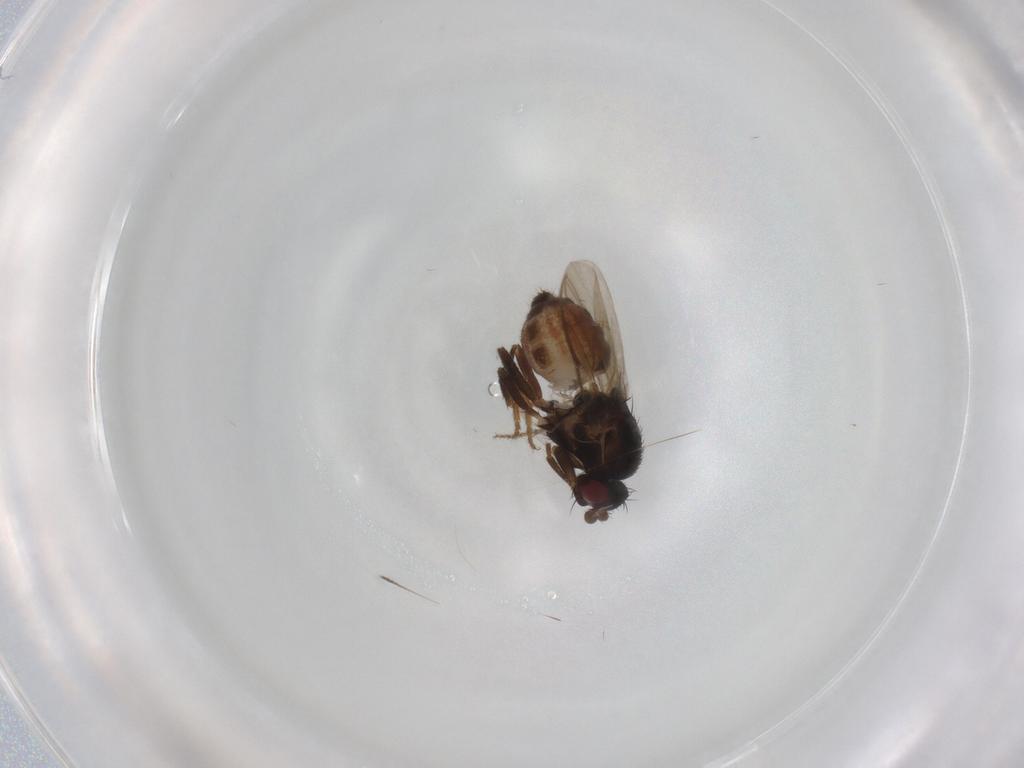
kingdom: Animalia
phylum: Arthropoda
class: Insecta
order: Diptera
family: Sphaeroceridae
